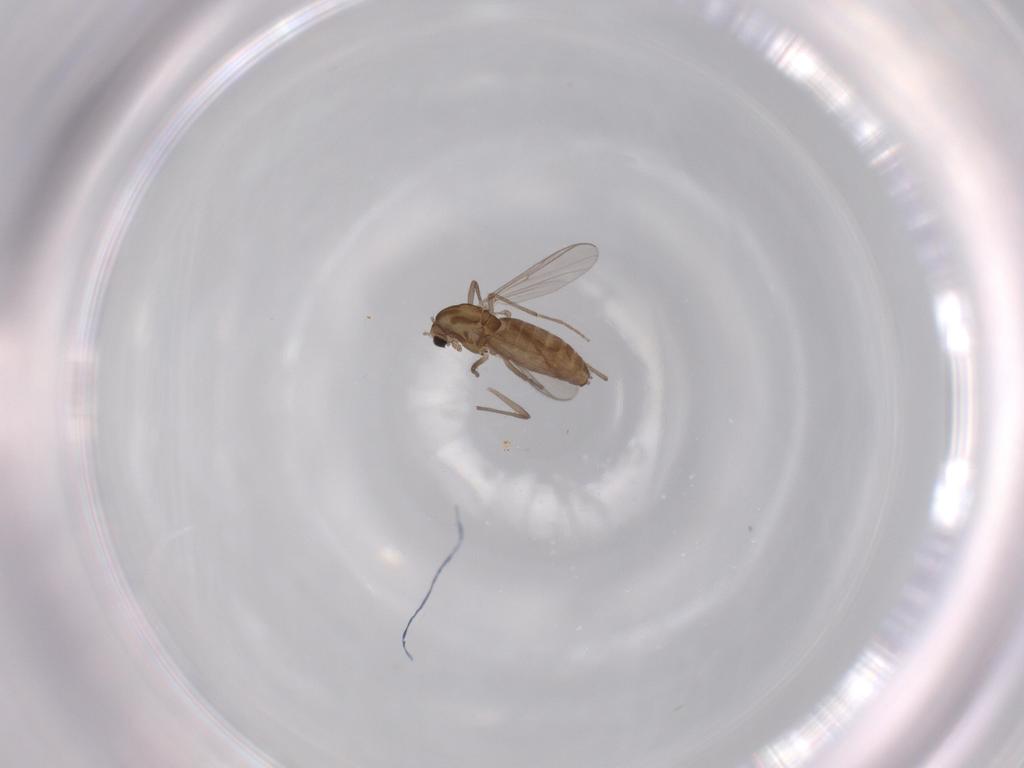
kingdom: Animalia
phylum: Arthropoda
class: Insecta
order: Diptera
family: Chironomidae
